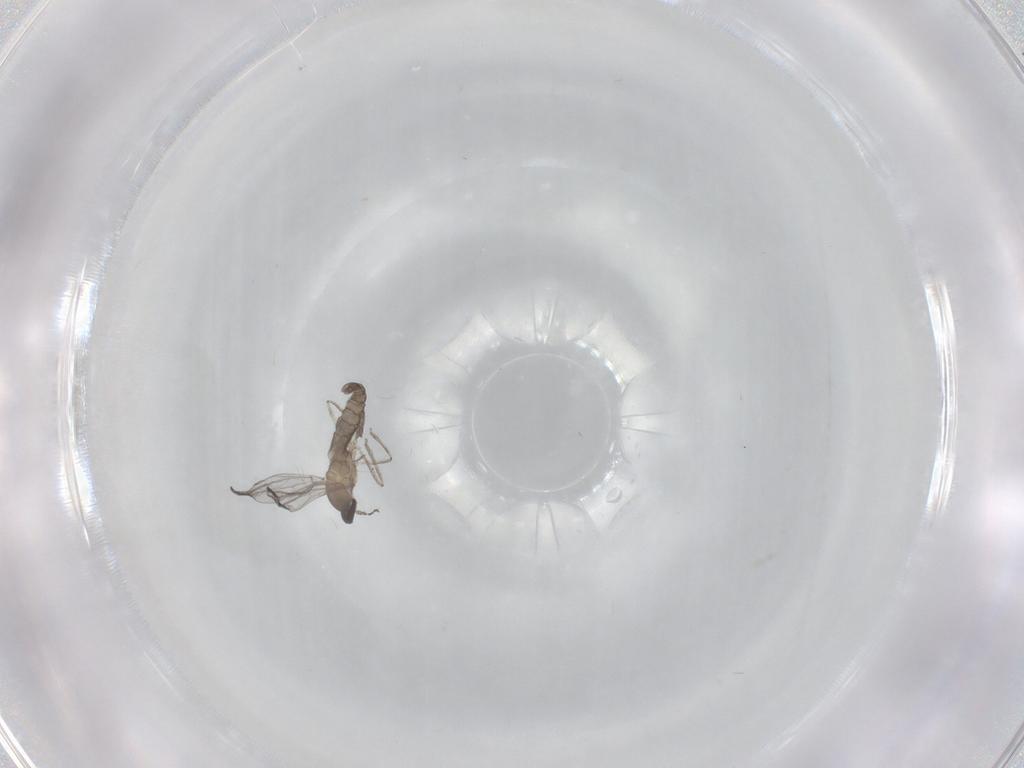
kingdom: Animalia
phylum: Arthropoda
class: Insecta
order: Diptera
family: Cecidomyiidae
